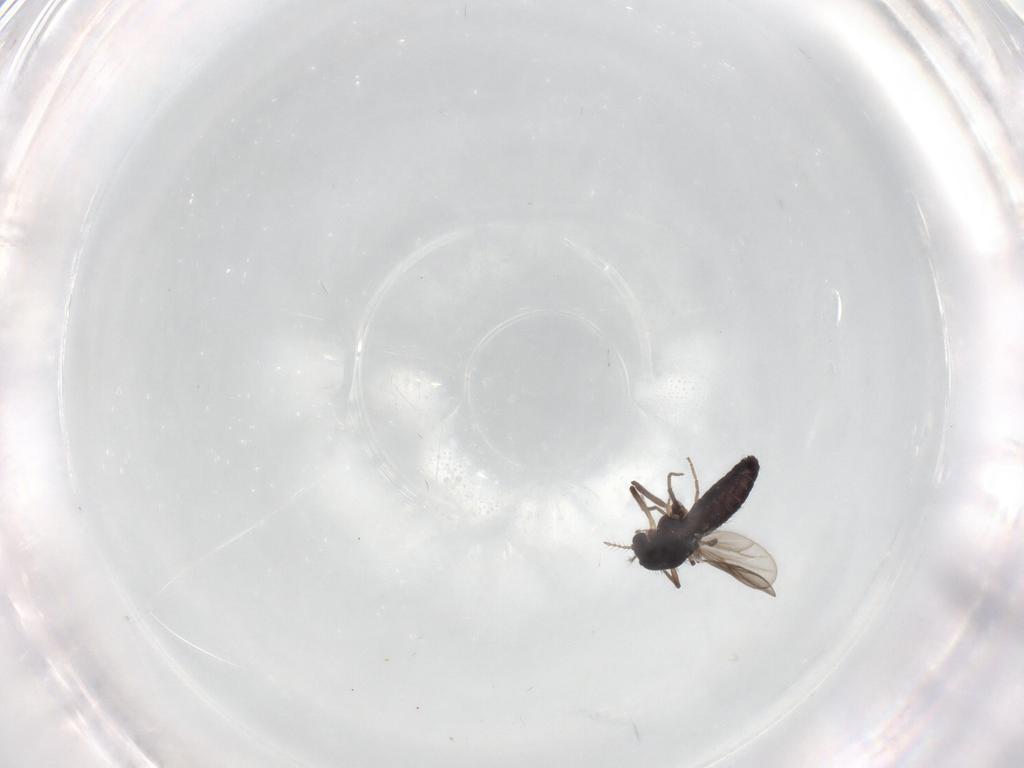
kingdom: Animalia
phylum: Arthropoda
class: Insecta
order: Diptera
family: Chironomidae
